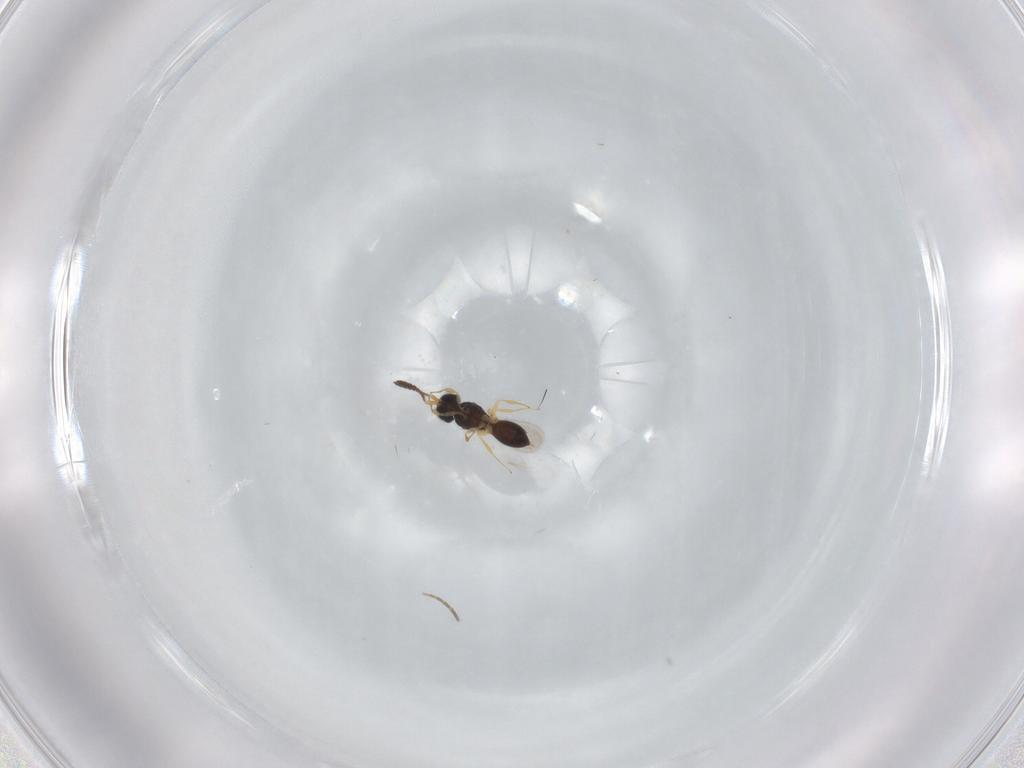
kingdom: Animalia
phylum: Arthropoda
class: Insecta
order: Hymenoptera
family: Scelionidae
